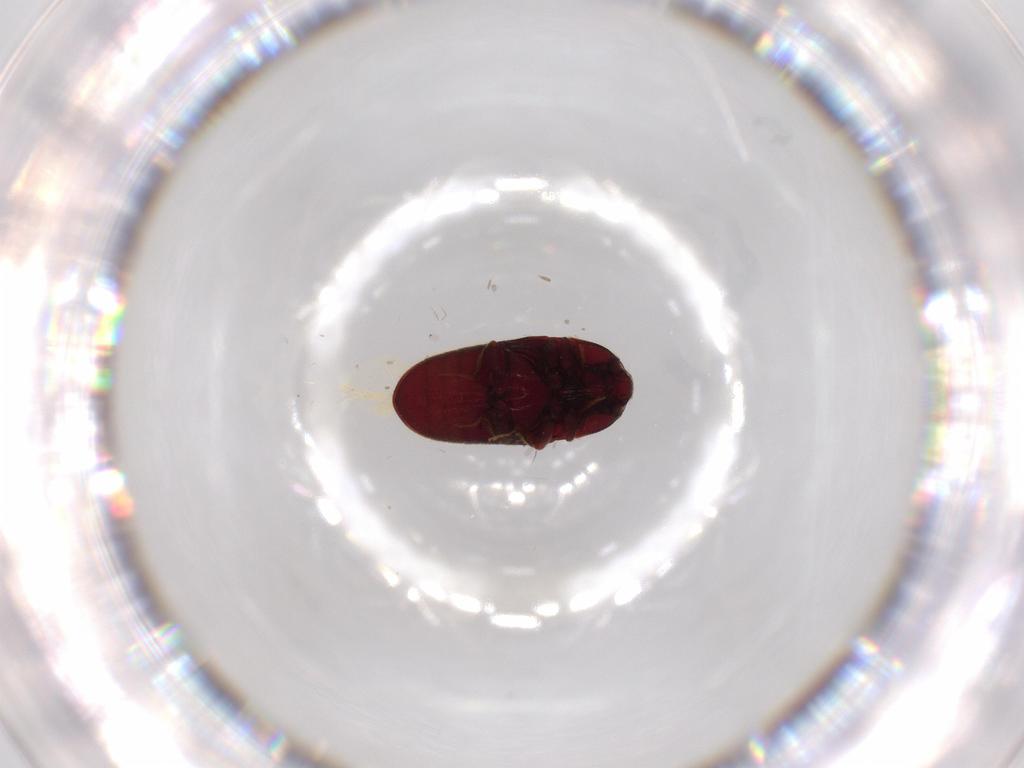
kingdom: Animalia
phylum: Arthropoda
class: Insecta
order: Coleoptera
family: Throscidae
